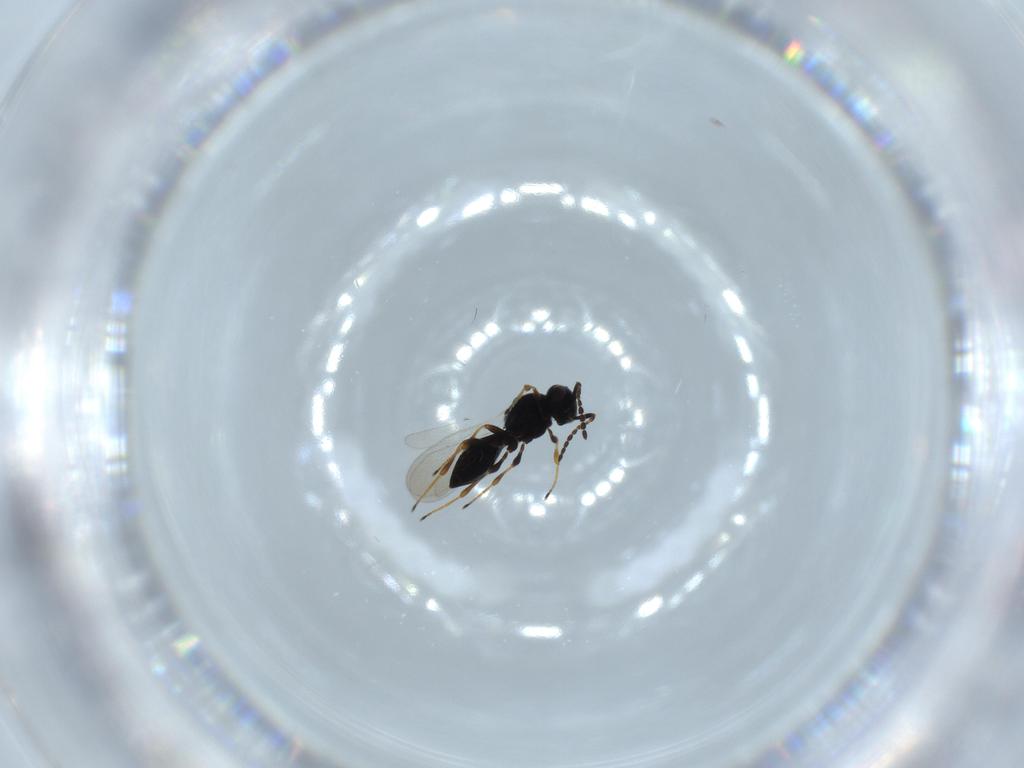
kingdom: Animalia
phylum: Arthropoda
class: Insecta
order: Hymenoptera
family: Platygastridae
